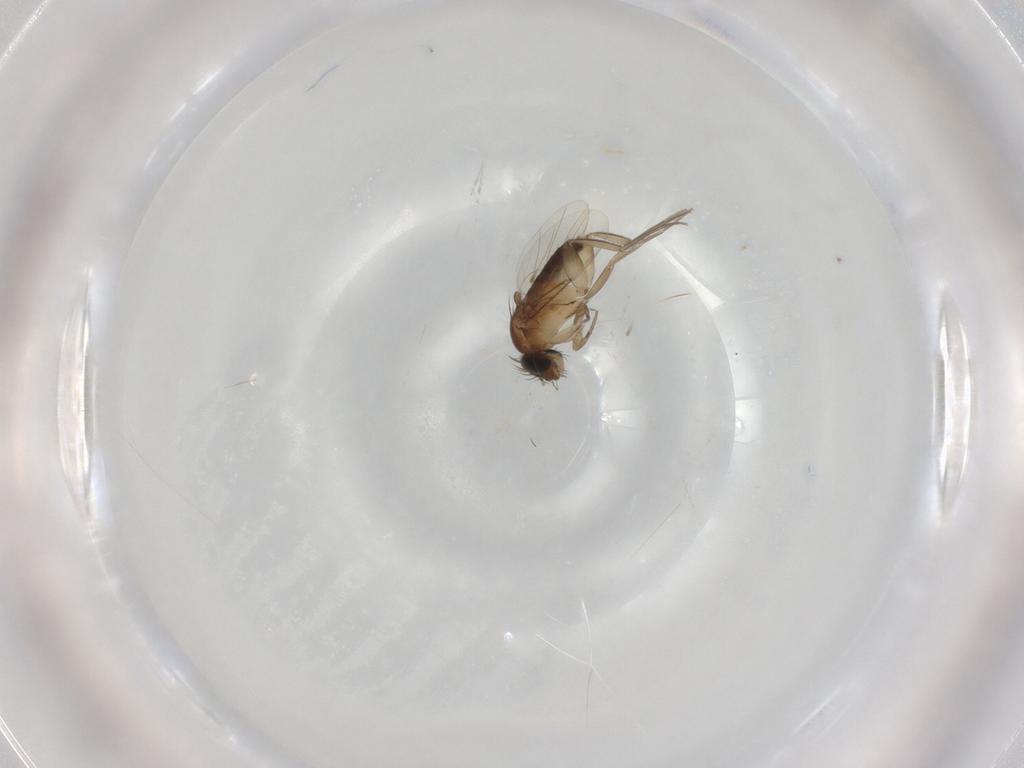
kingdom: Animalia
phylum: Arthropoda
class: Insecta
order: Diptera
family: Phoridae
